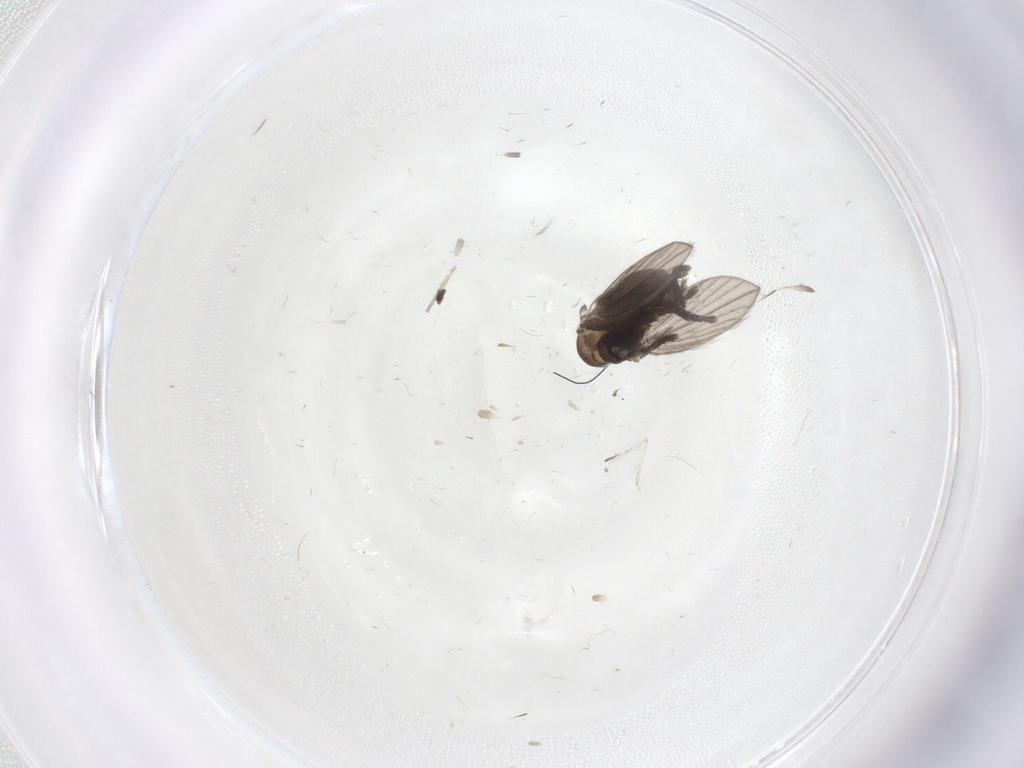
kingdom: Animalia
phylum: Arthropoda
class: Insecta
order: Diptera
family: Psychodidae
